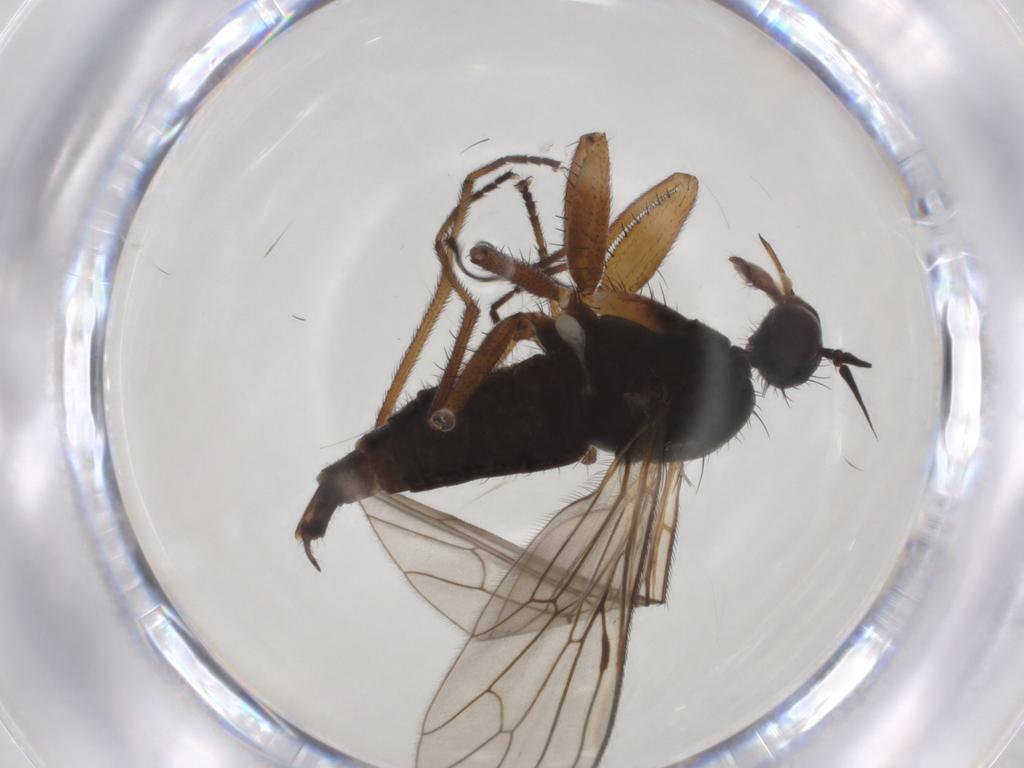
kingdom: Animalia
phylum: Arthropoda
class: Insecta
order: Diptera
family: Empididae
